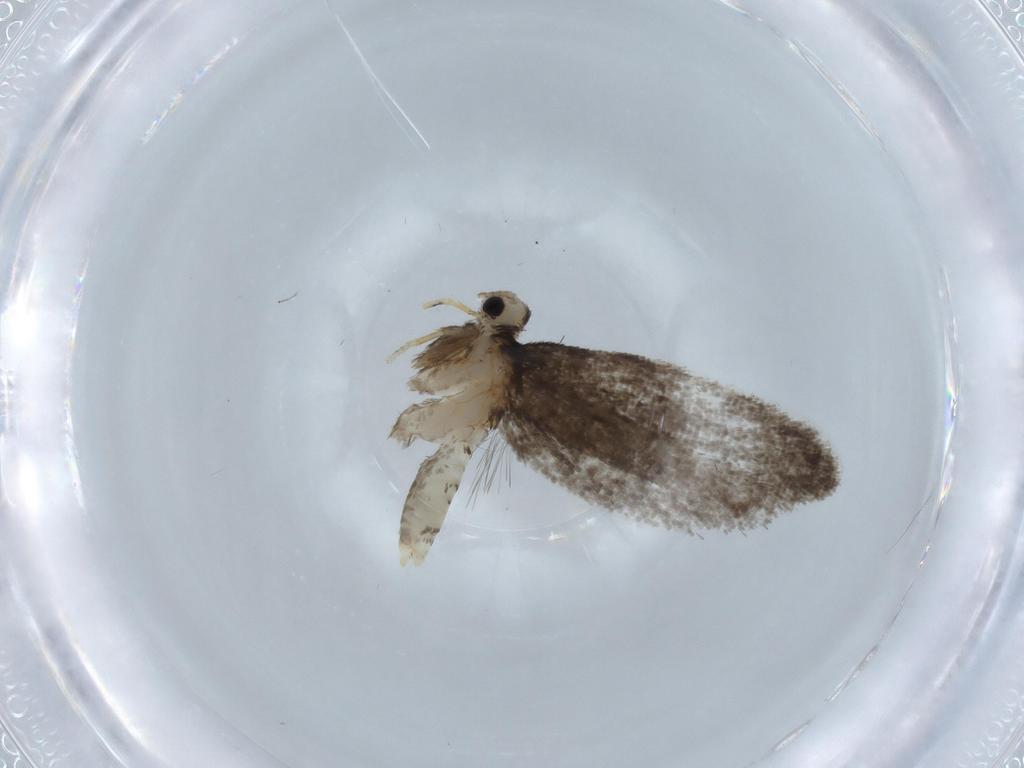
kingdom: Animalia
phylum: Arthropoda
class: Insecta
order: Lepidoptera
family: Psychidae
